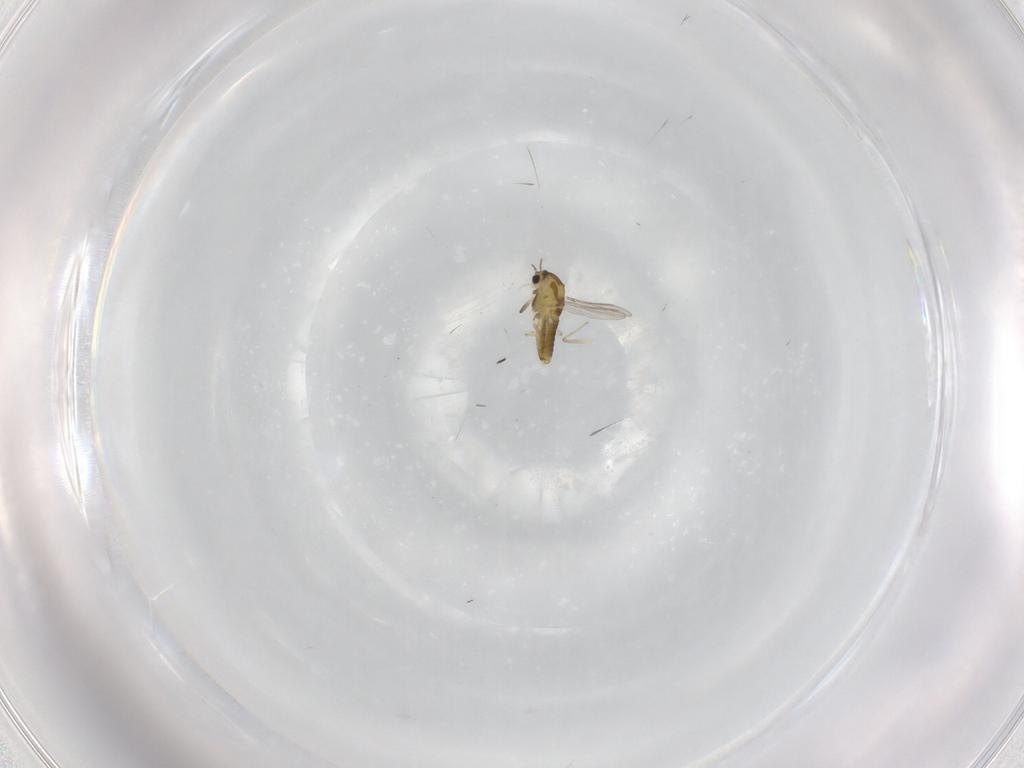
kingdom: Animalia
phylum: Arthropoda
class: Insecta
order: Diptera
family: Chironomidae
